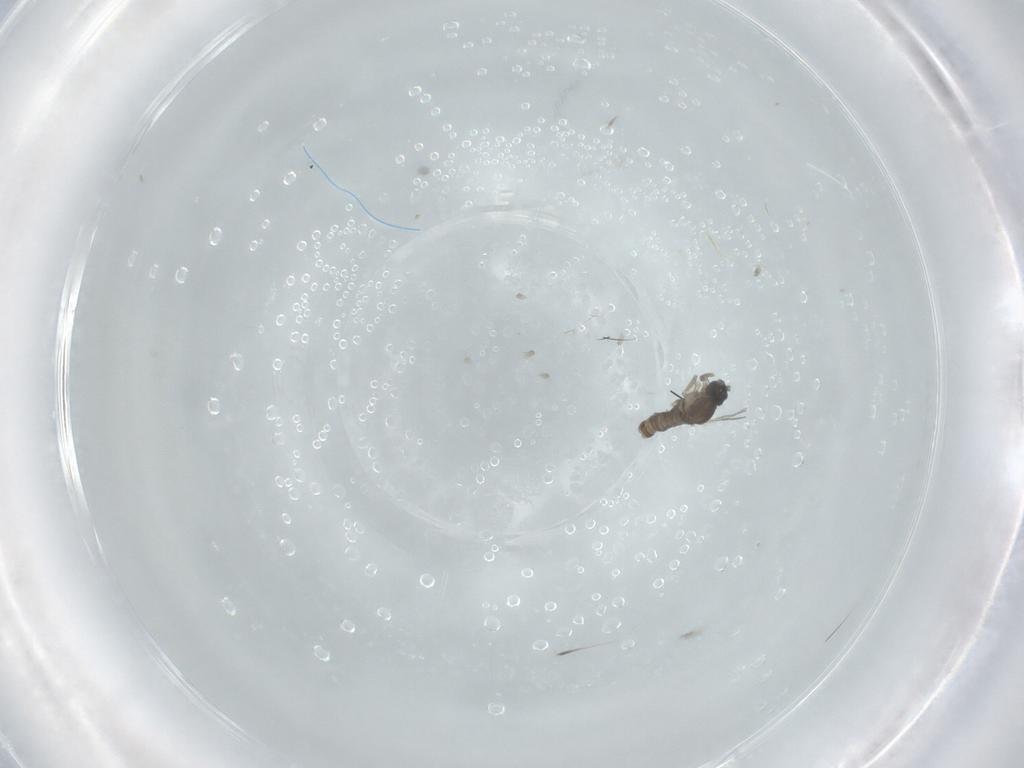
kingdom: Animalia
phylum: Arthropoda
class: Insecta
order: Diptera
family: Cecidomyiidae
